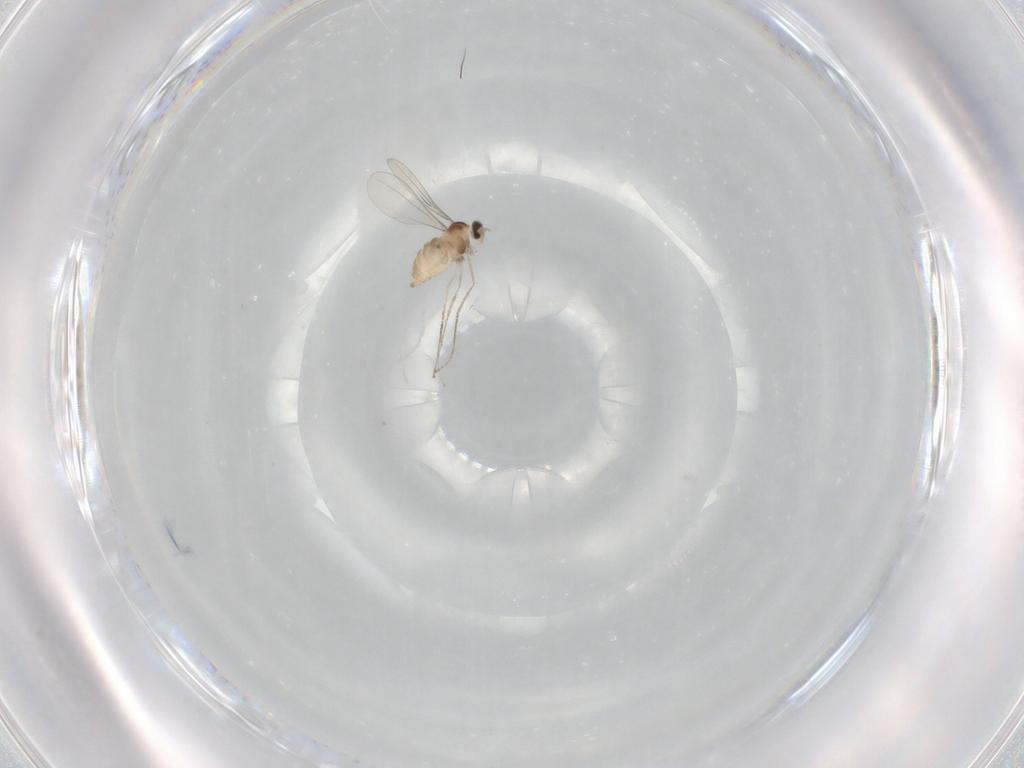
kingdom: Animalia
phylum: Arthropoda
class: Insecta
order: Diptera
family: Cecidomyiidae
